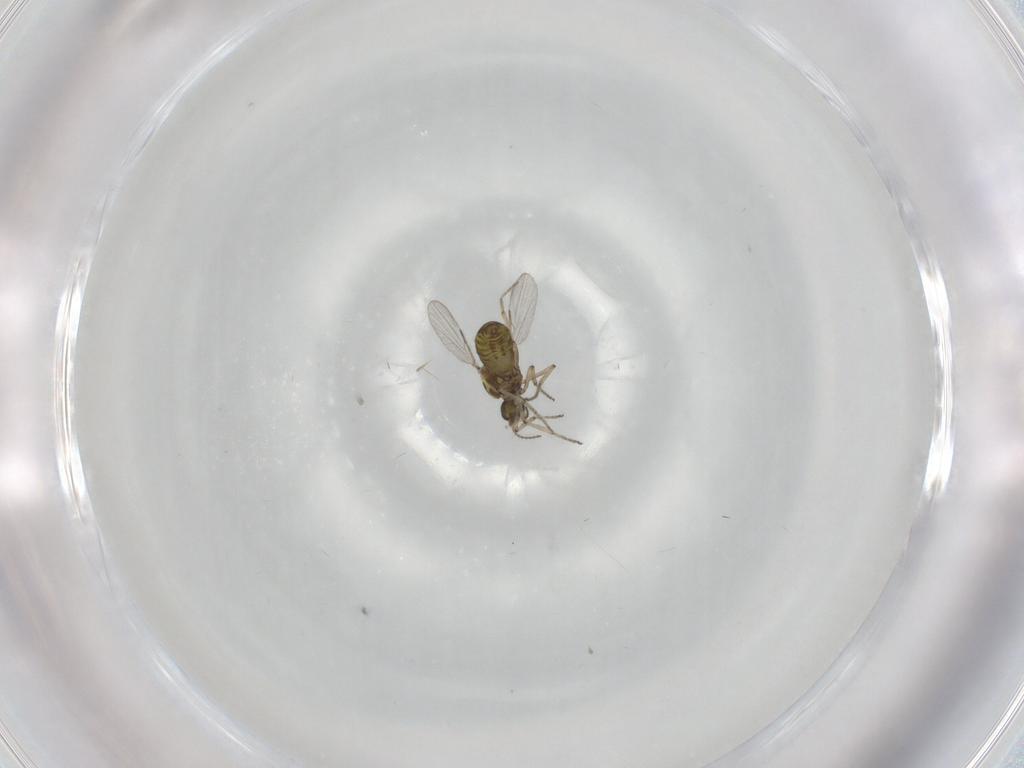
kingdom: Animalia
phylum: Arthropoda
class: Insecta
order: Diptera
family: Ceratopogonidae
